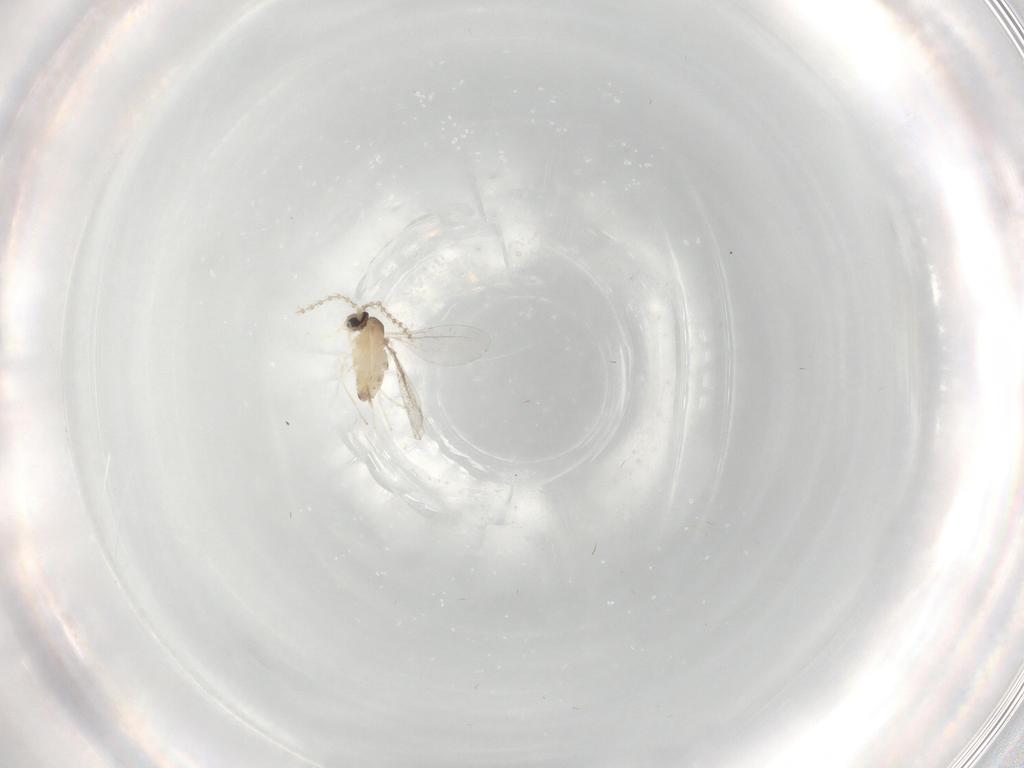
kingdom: Animalia
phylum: Arthropoda
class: Insecta
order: Diptera
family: Cecidomyiidae
